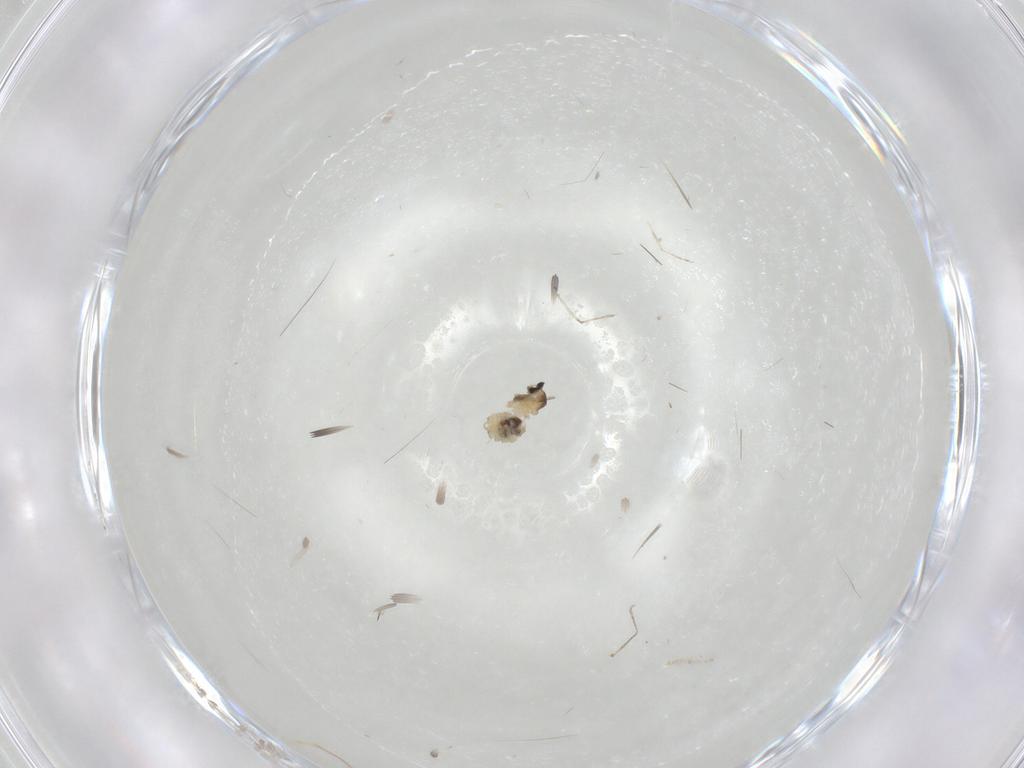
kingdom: Animalia
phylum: Arthropoda
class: Insecta
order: Diptera
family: Cecidomyiidae
